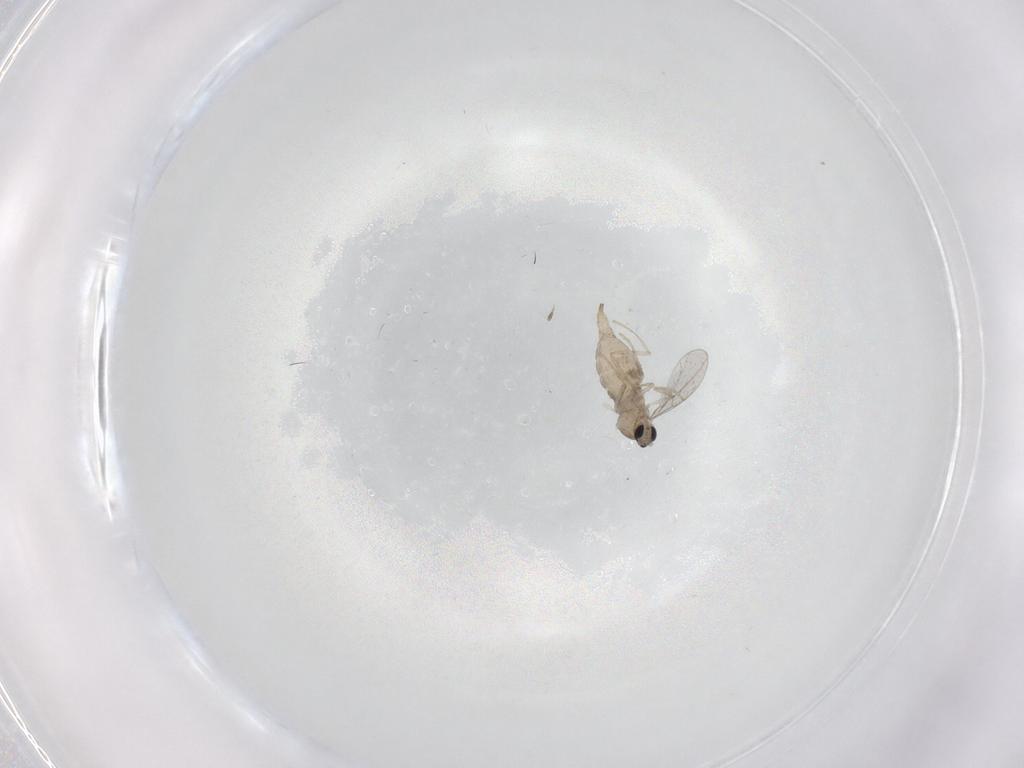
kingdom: Animalia
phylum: Arthropoda
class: Insecta
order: Diptera
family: Cecidomyiidae
